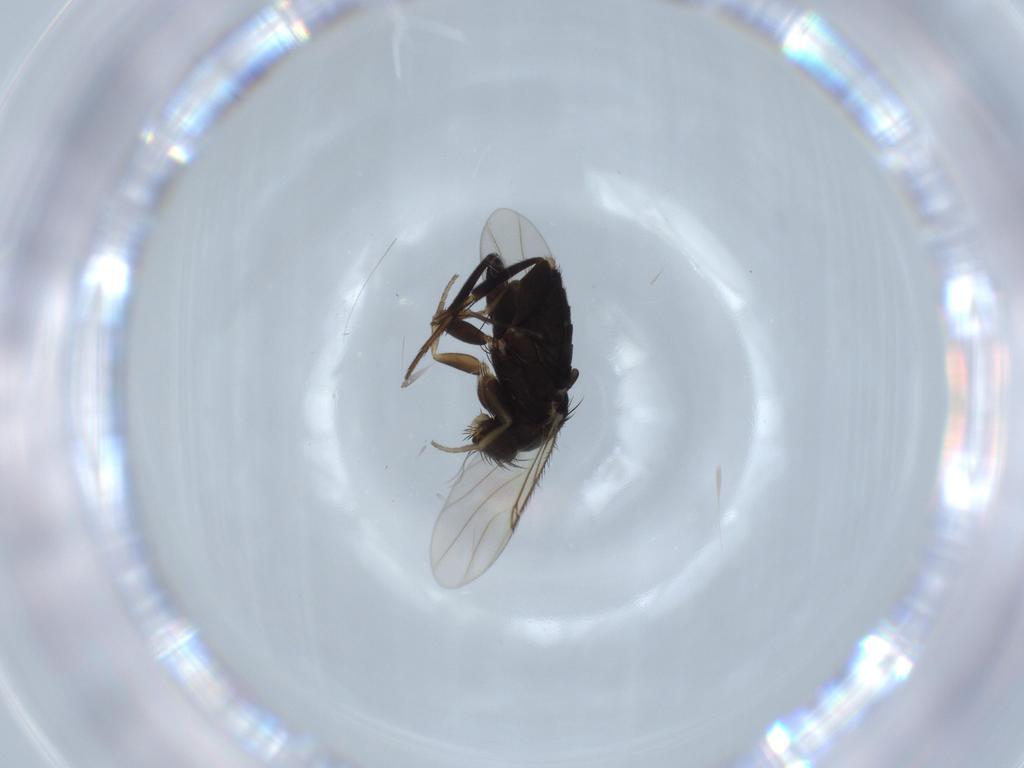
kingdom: Animalia
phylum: Arthropoda
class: Insecta
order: Diptera
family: Phoridae
